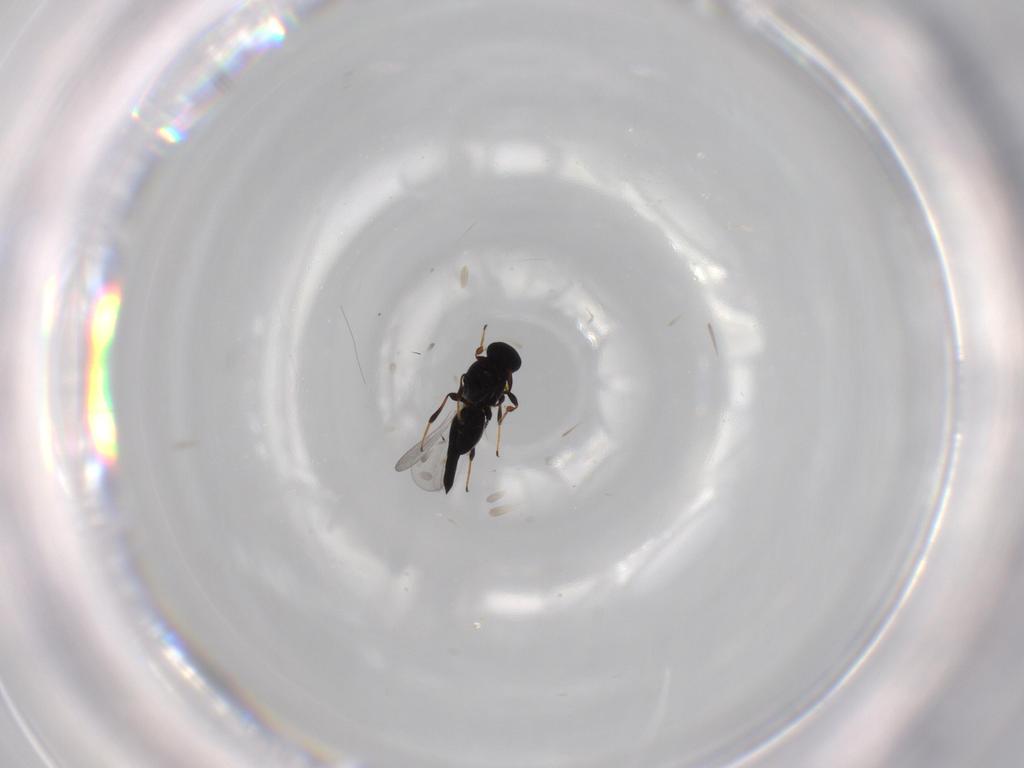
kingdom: Animalia
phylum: Arthropoda
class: Insecta
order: Hymenoptera
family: Platygastridae
